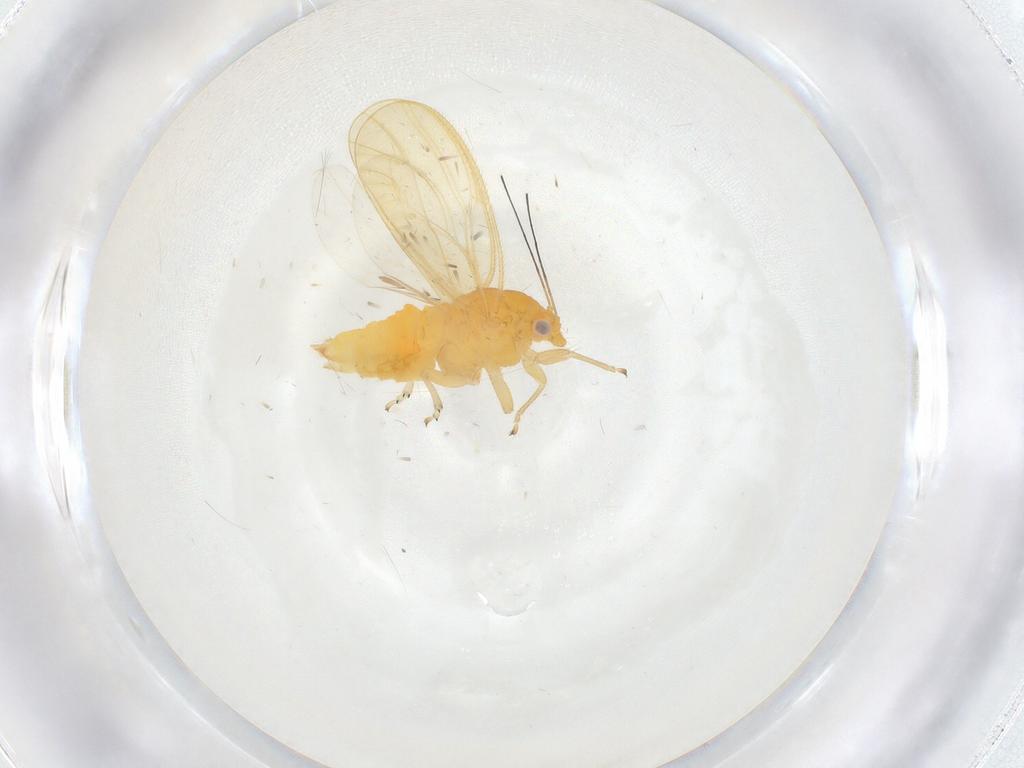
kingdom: Animalia
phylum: Arthropoda
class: Insecta
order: Hemiptera
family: Psyllidae
